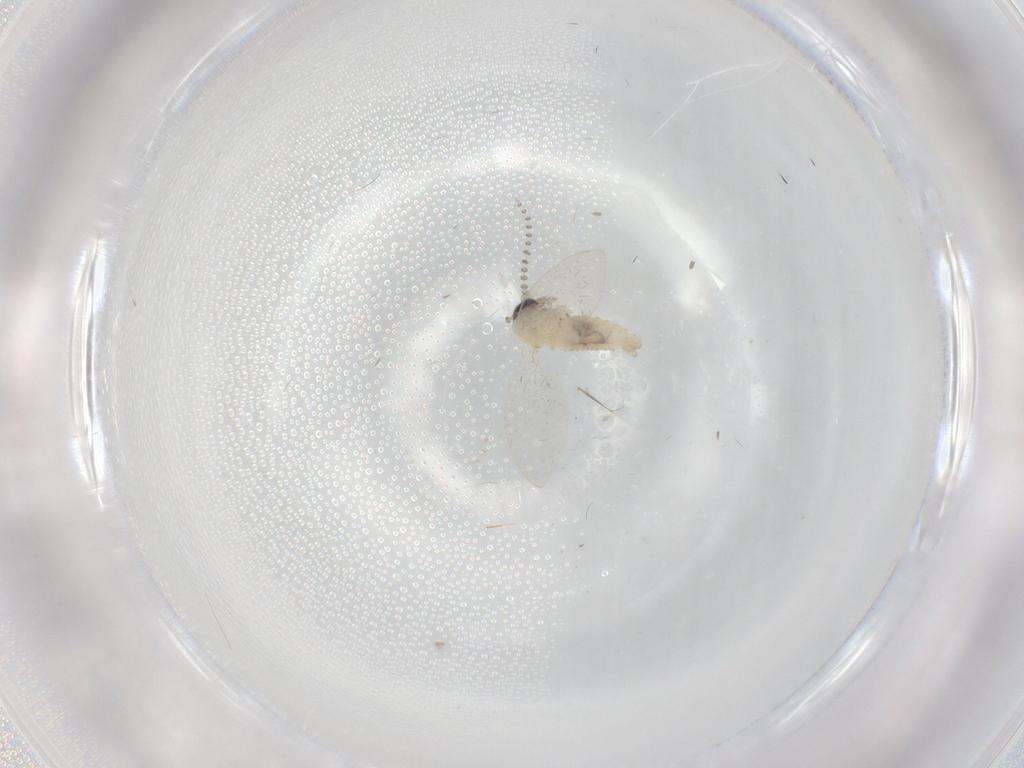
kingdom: Animalia
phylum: Arthropoda
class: Insecta
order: Diptera
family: Psychodidae
